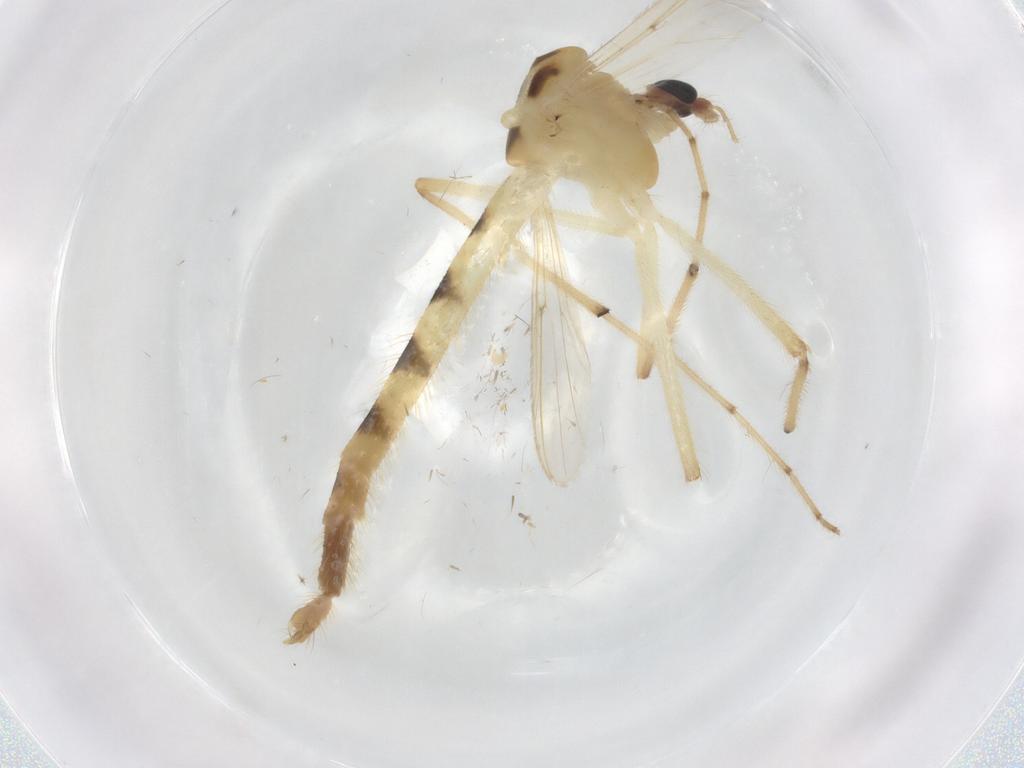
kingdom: Animalia
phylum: Arthropoda
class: Insecta
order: Diptera
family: Chironomidae
